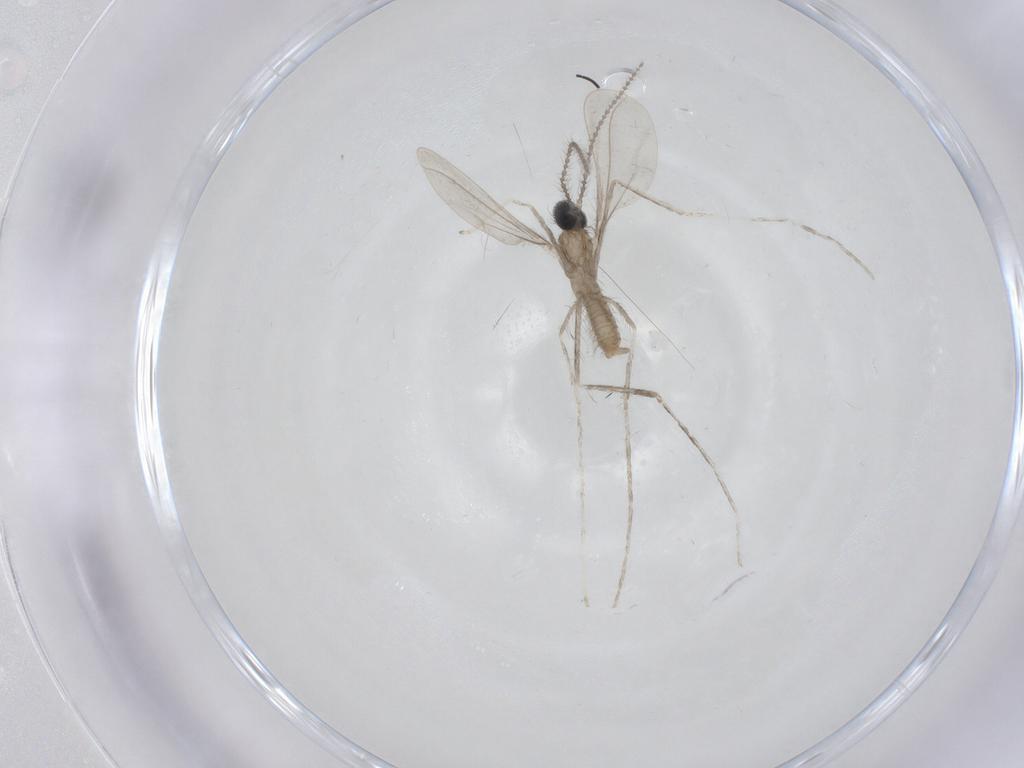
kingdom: Animalia
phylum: Arthropoda
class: Insecta
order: Diptera
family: Cecidomyiidae
